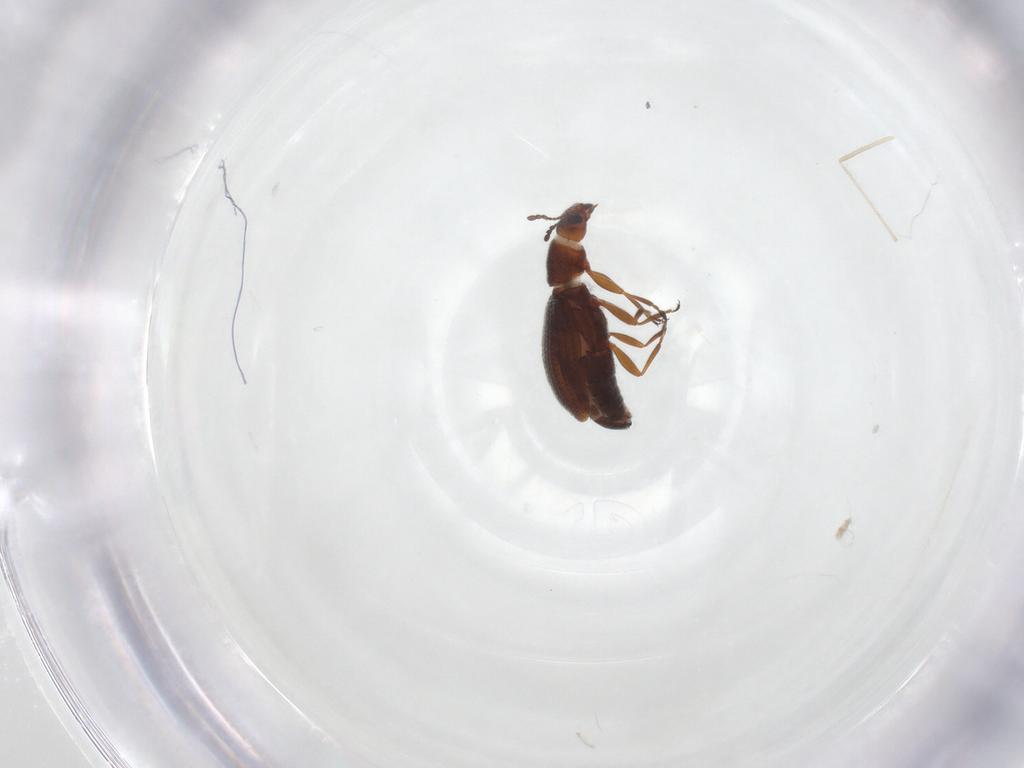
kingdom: Animalia
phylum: Arthropoda
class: Insecta
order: Coleoptera
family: Latridiidae
